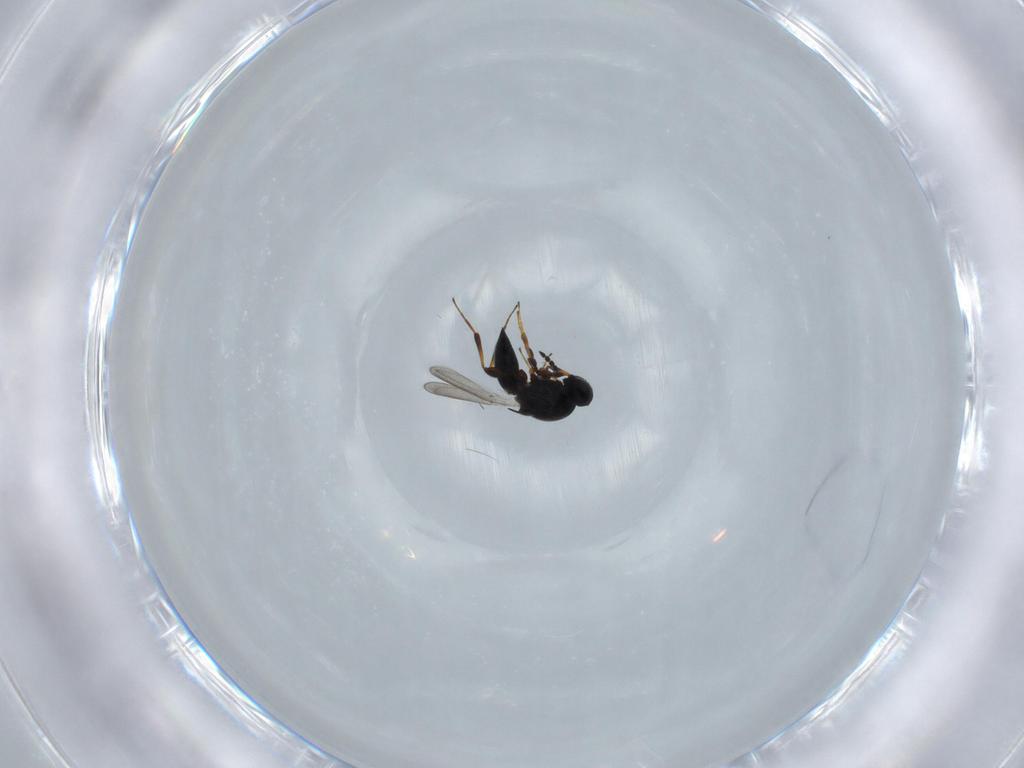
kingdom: Animalia
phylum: Arthropoda
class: Insecta
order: Hymenoptera
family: Platygastridae
